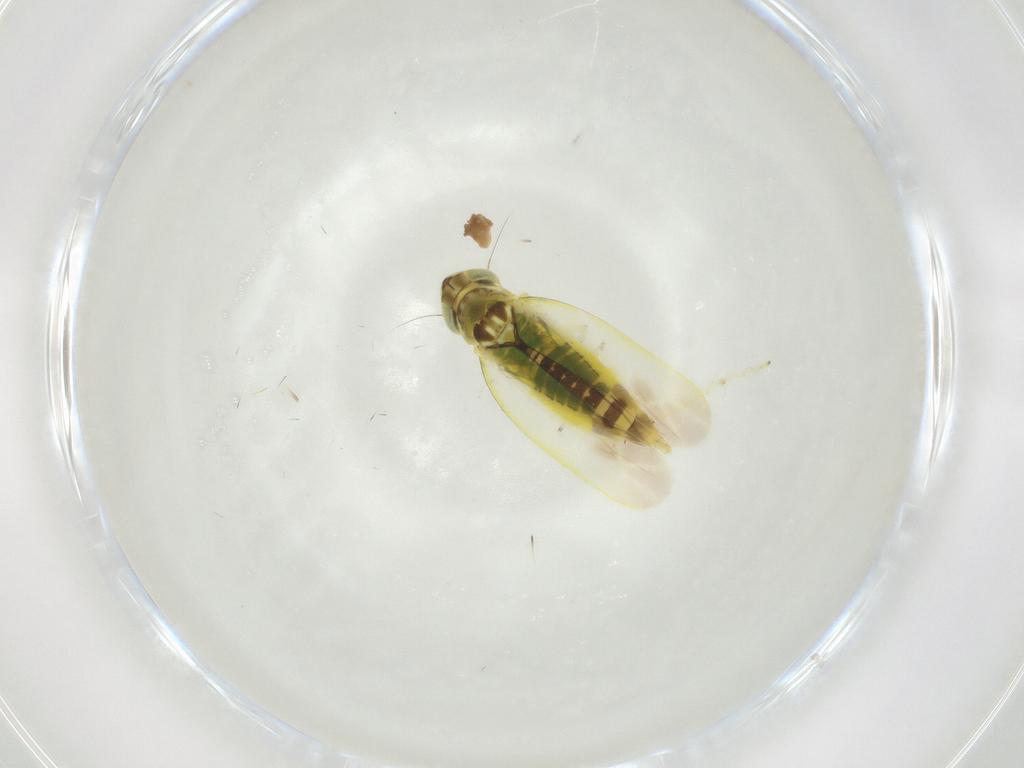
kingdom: Animalia
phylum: Arthropoda
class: Insecta
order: Hemiptera
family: Cicadellidae
